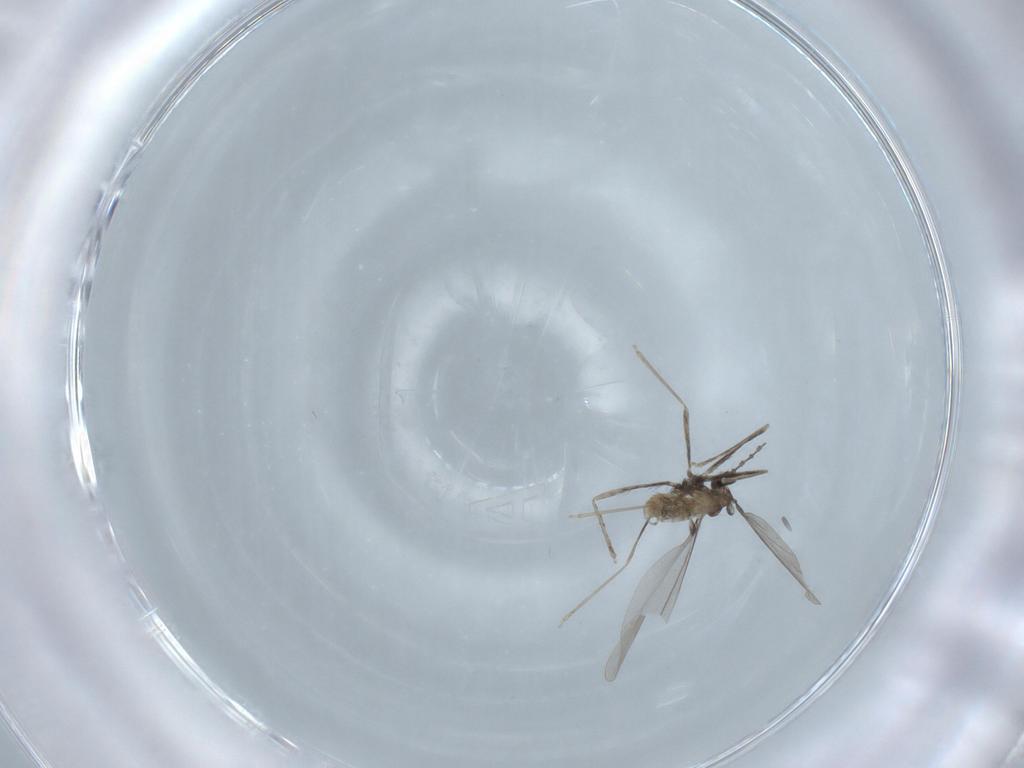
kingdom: Animalia
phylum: Arthropoda
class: Insecta
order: Diptera
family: Cecidomyiidae
